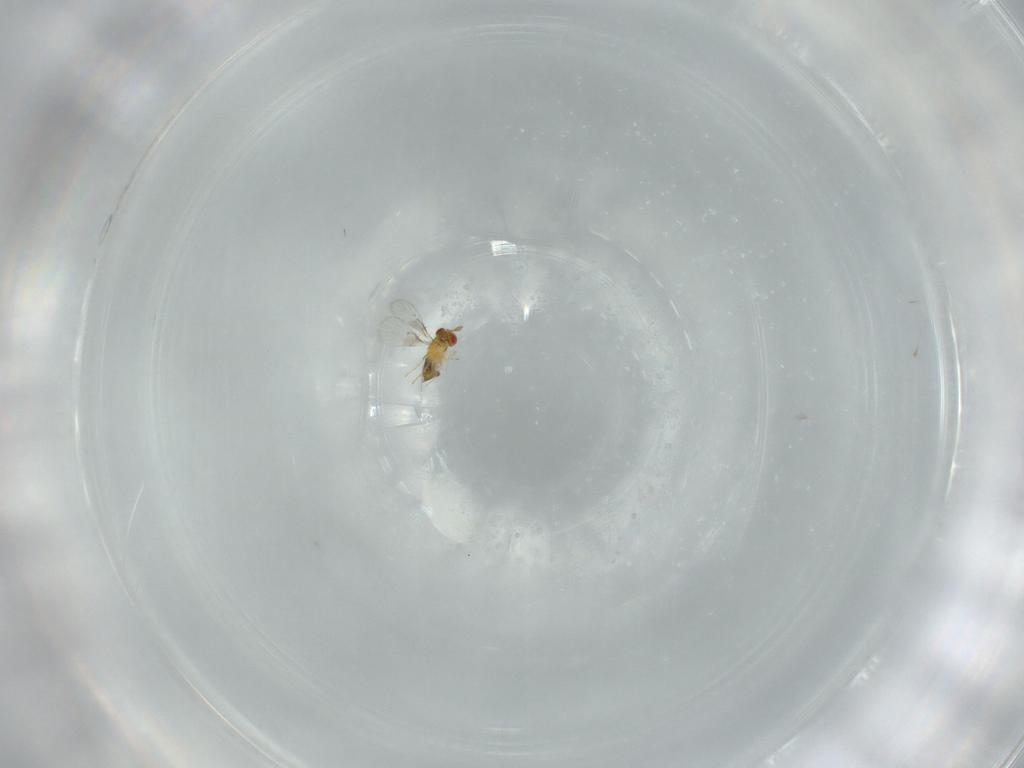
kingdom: Animalia
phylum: Arthropoda
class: Insecta
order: Hymenoptera
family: Trichogrammatidae
